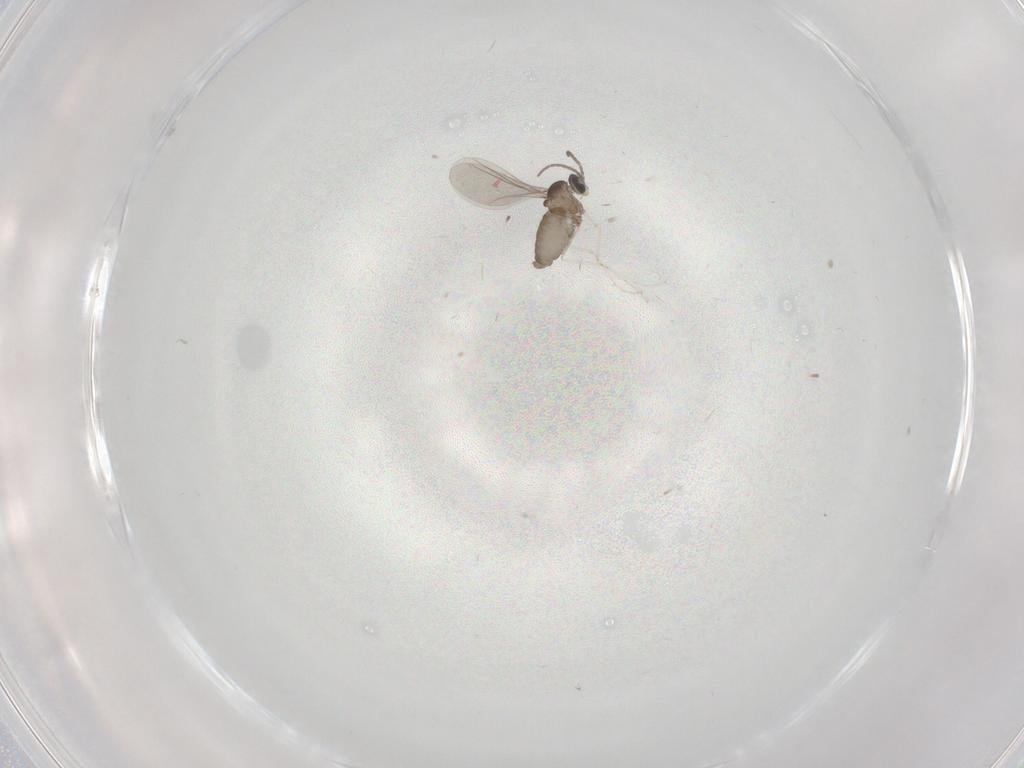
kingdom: Animalia
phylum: Arthropoda
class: Insecta
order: Diptera
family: Cecidomyiidae
